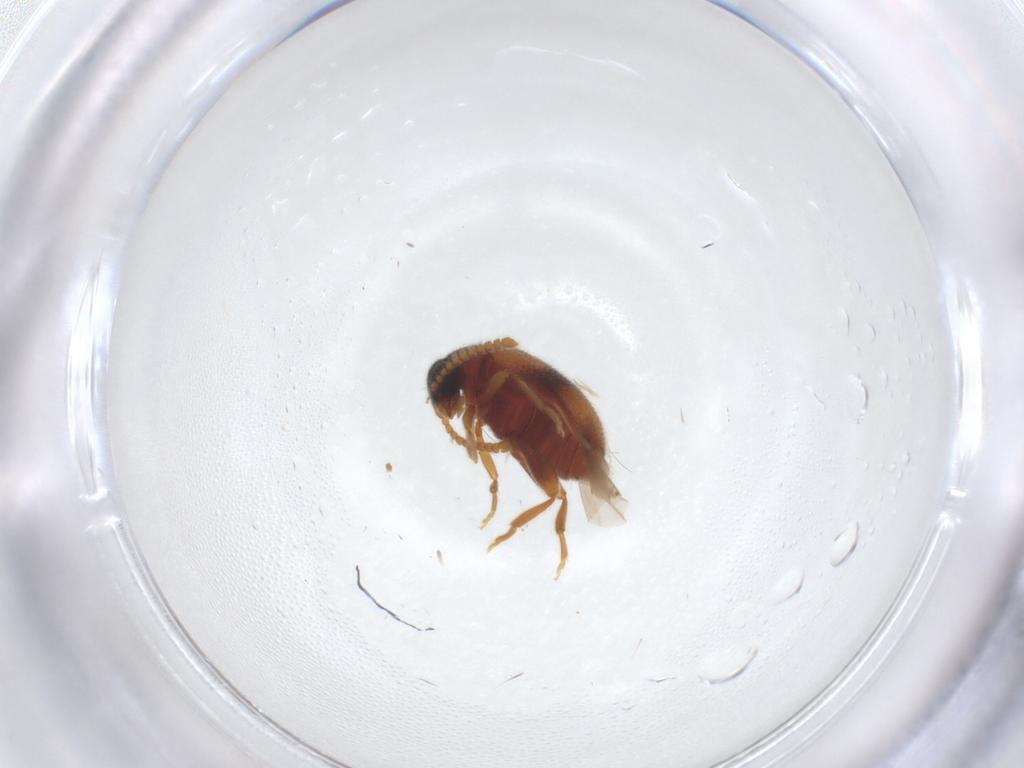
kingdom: Animalia
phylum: Arthropoda
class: Insecta
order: Coleoptera
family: Aderidae
